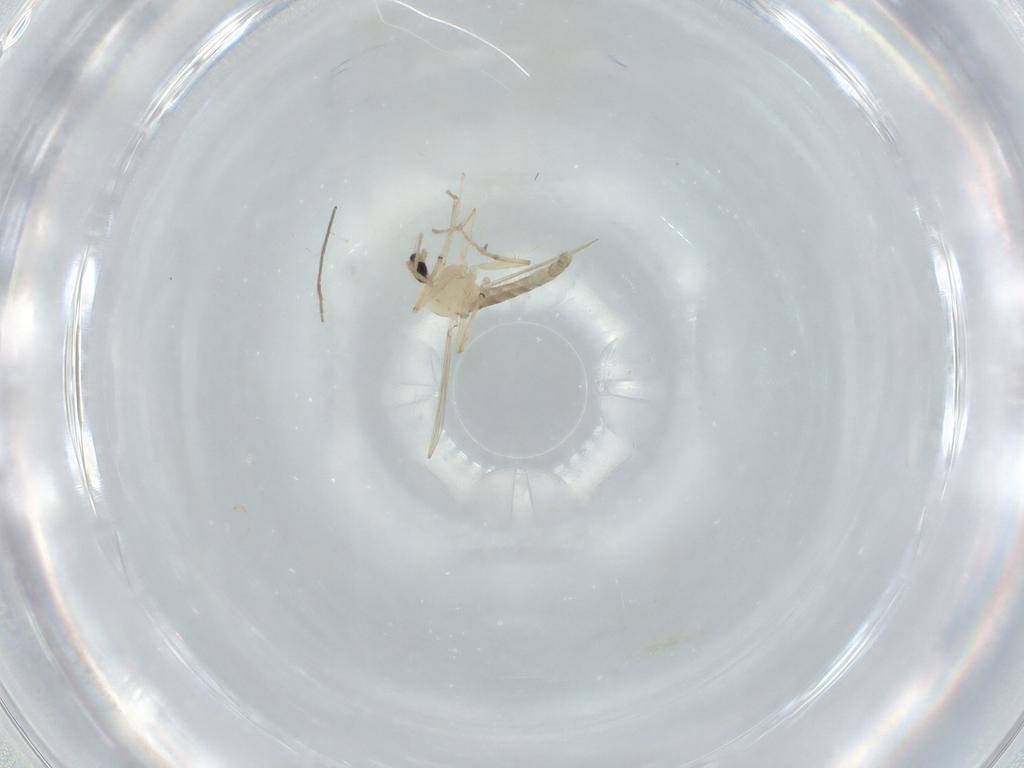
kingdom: Animalia
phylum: Arthropoda
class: Insecta
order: Diptera
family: Chironomidae
